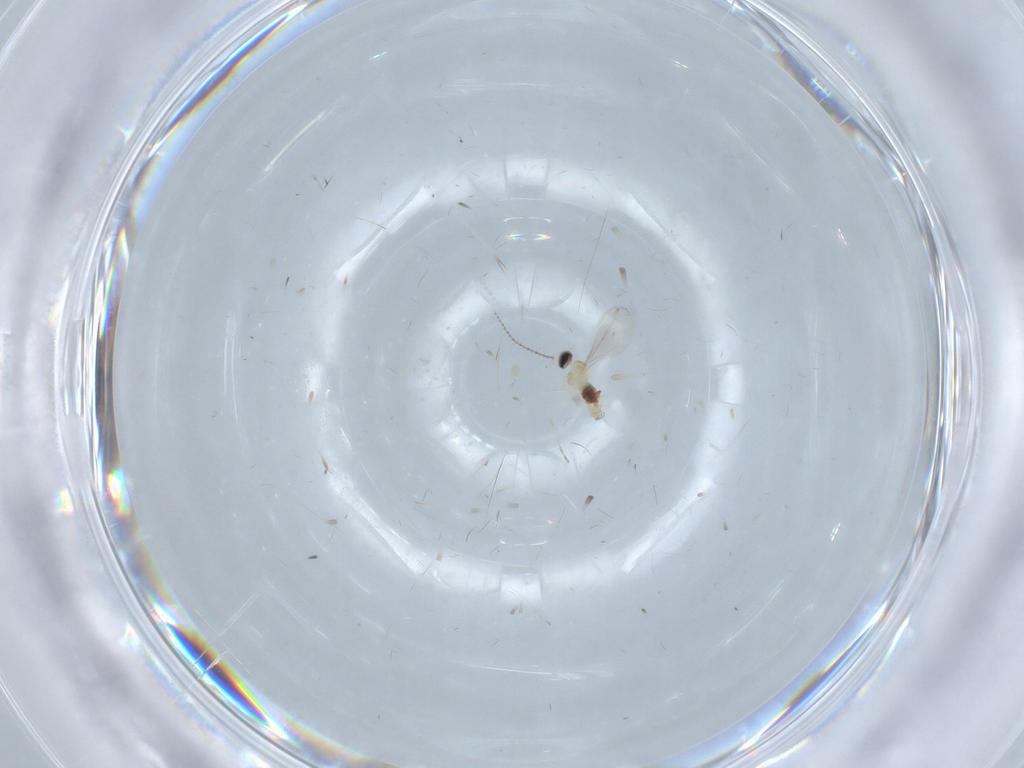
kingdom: Animalia
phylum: Arthropoda
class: Insecta
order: Diptera
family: Cecidomyiidae
